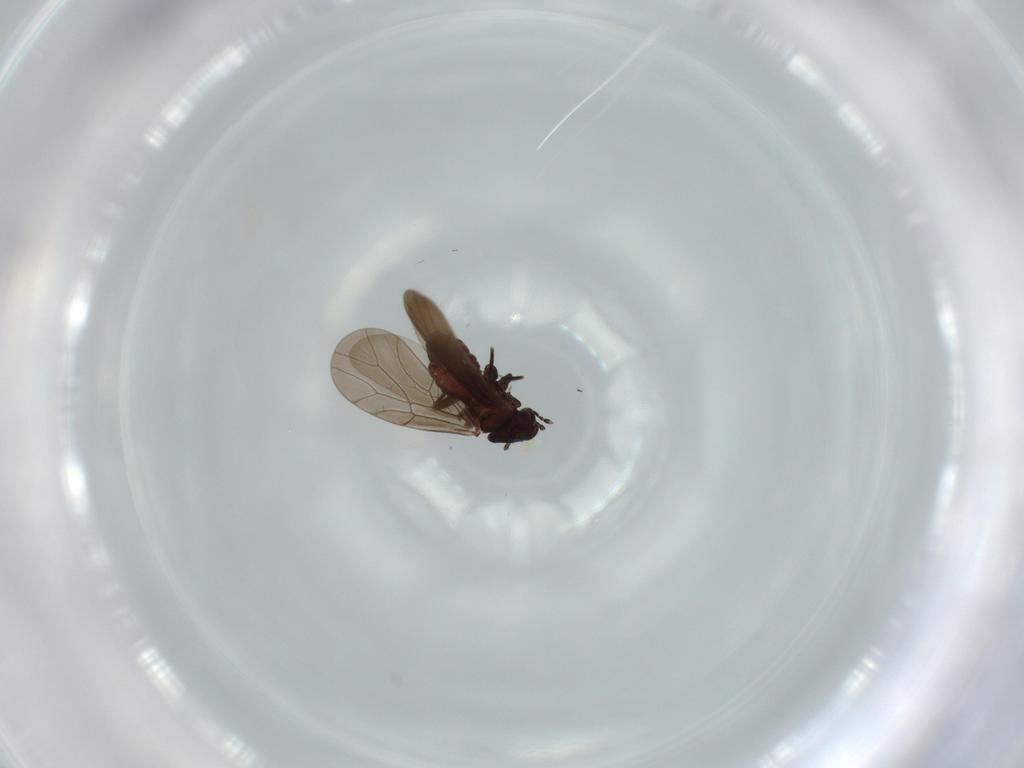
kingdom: Animalia
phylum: Arthropoda
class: Insecta
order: Psocodea
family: Lepidopsocidae
